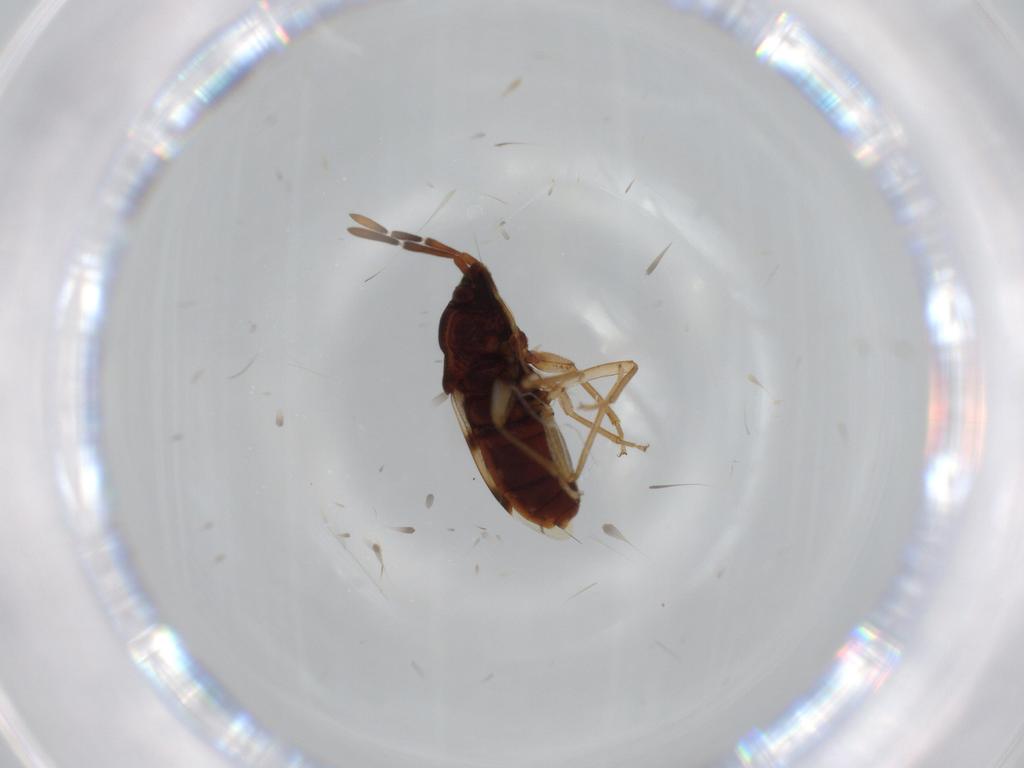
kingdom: Animalia
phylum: Arthropoda
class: Insecta
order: Hemiptera
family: Rhyparochromidae
